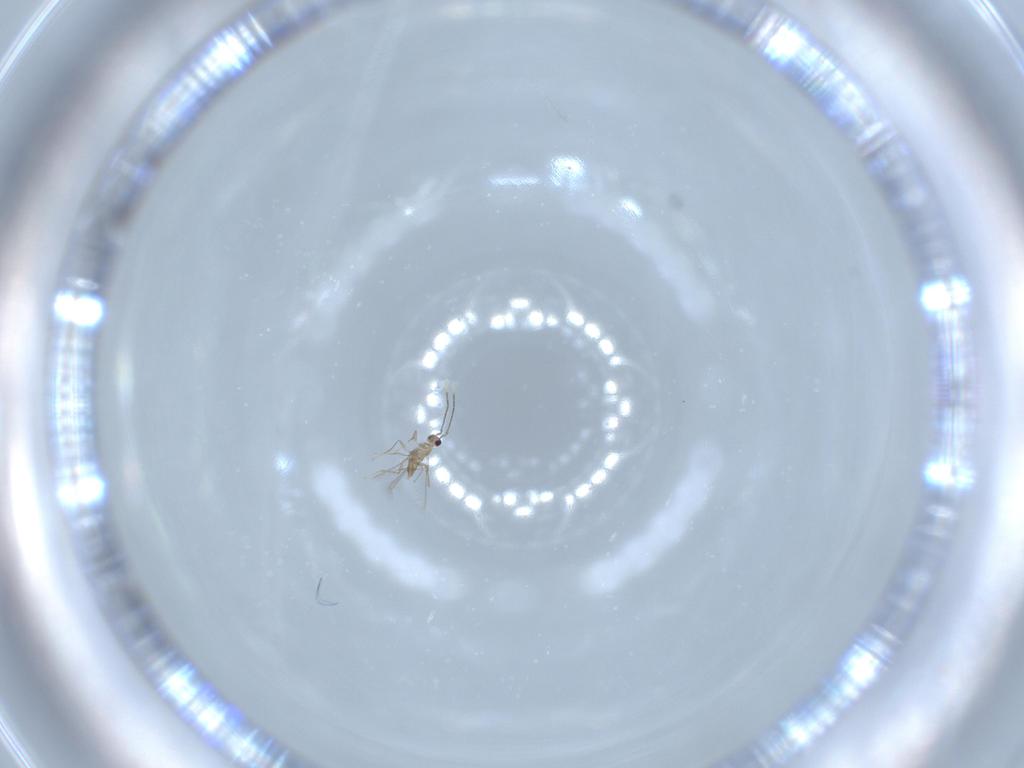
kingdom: Animalia
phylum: Arthropoda
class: Insecta
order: Hymenoptera
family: Mymaridae
